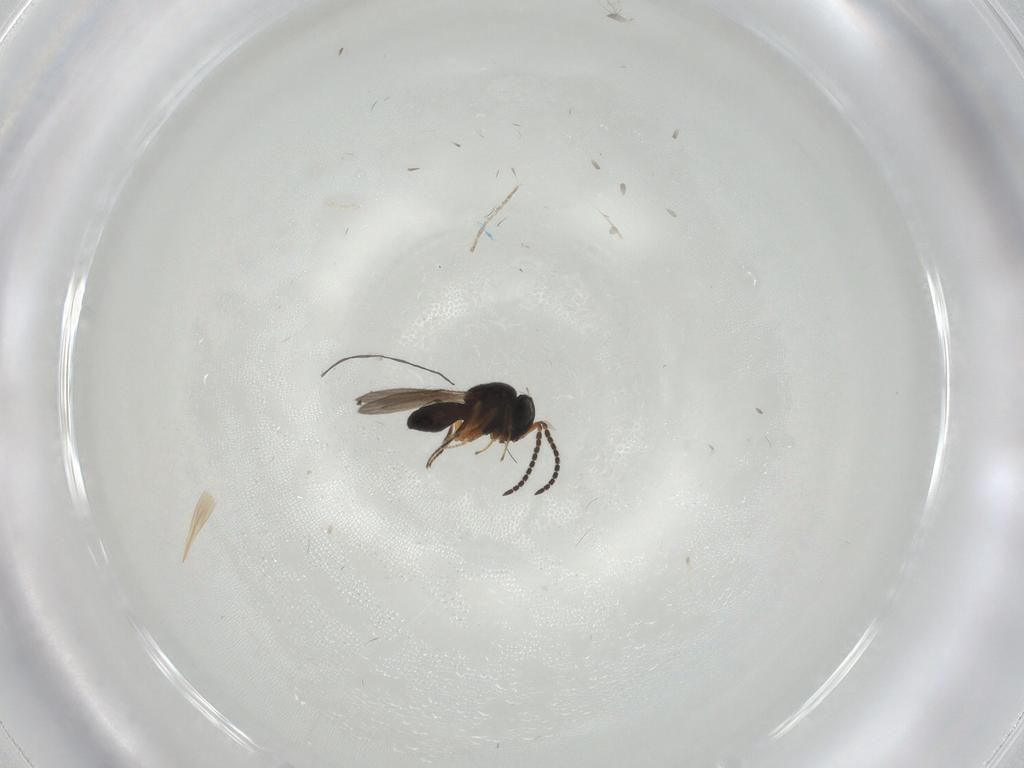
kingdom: Animalia
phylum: Arthropoda
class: Insecta
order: Hymenoptera
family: Scelionidae
